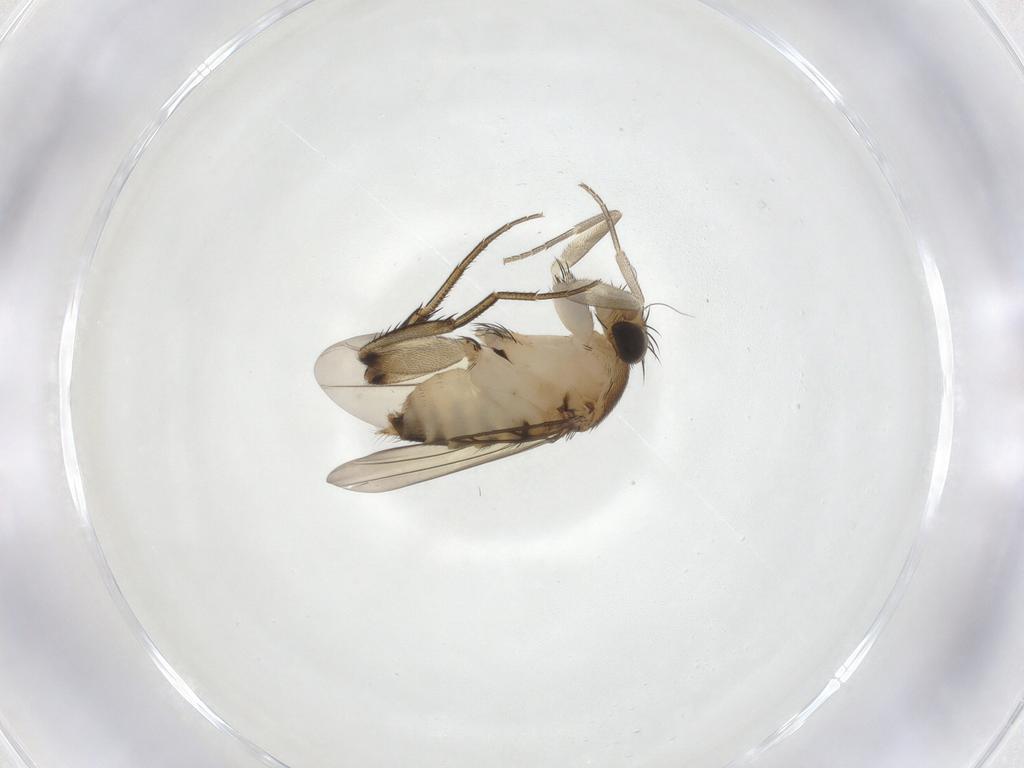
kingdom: Animalia
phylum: Arthropoda
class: Insecta
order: Diptera
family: Phoridae
